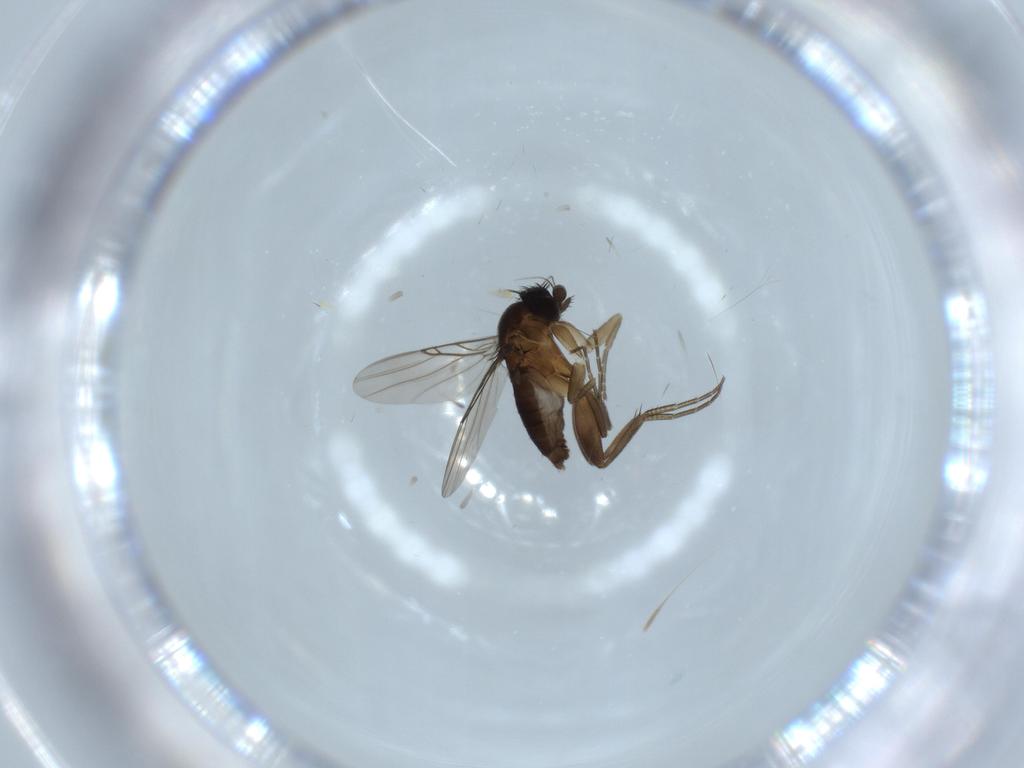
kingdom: Animalia
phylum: Arthropoda
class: Insecta
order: Diptera
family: Phoridae
